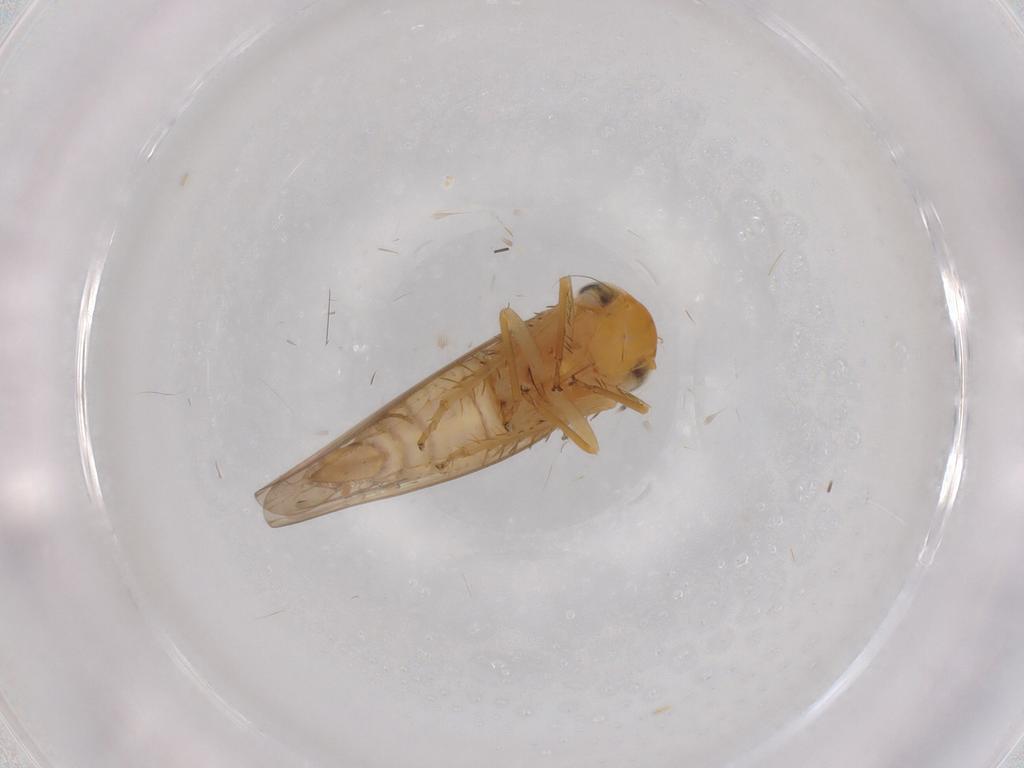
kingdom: Animalia
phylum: Arthropoda
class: Insecta
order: Hemiptera
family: Cicadellidae
